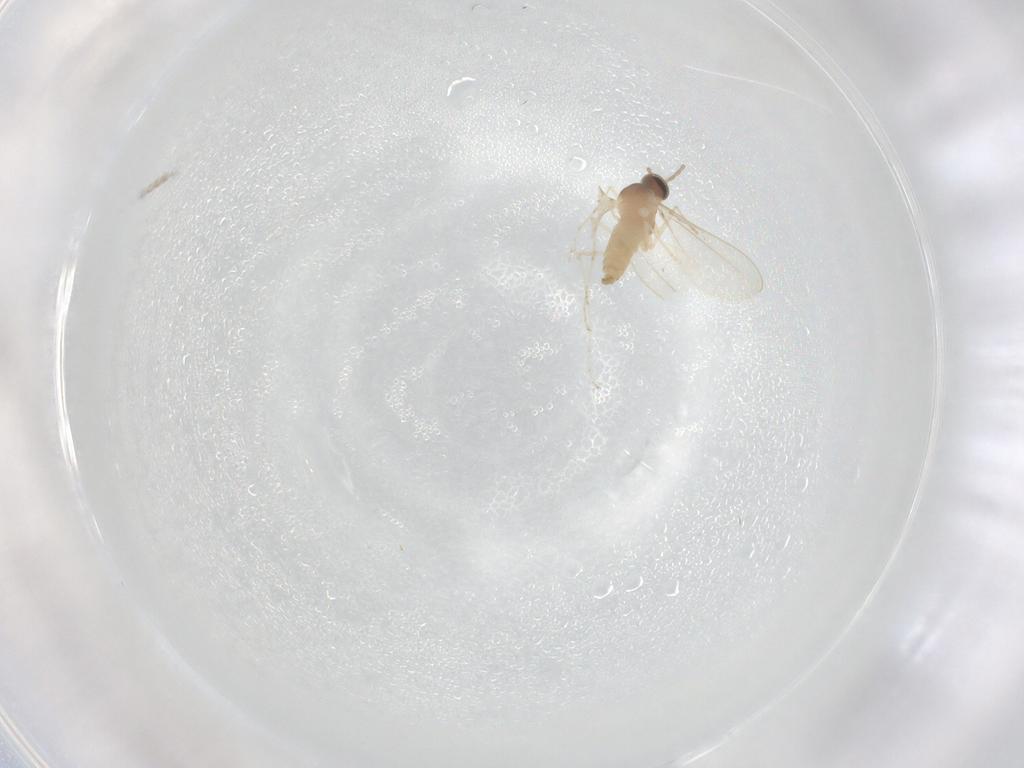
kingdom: Animalia
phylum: Arthropoda
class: Insecta
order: Diptera
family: Cecidomyiidae
